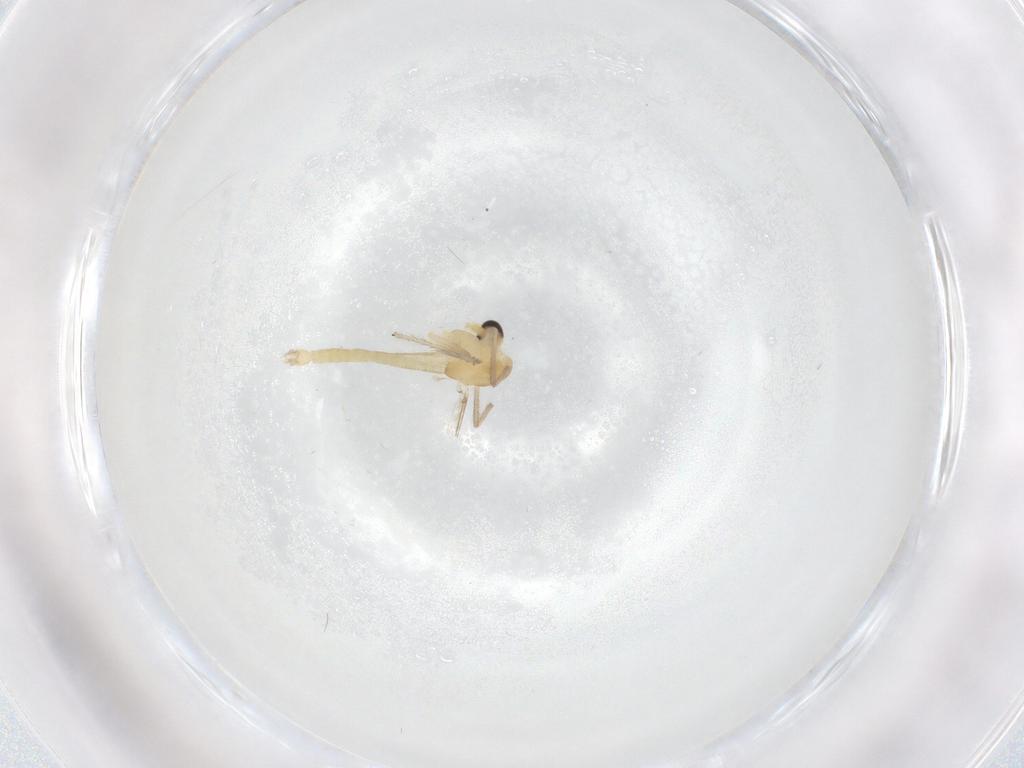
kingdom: Animalia
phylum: Arthropoda
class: Insecta
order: Diptera
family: Chironomidae
